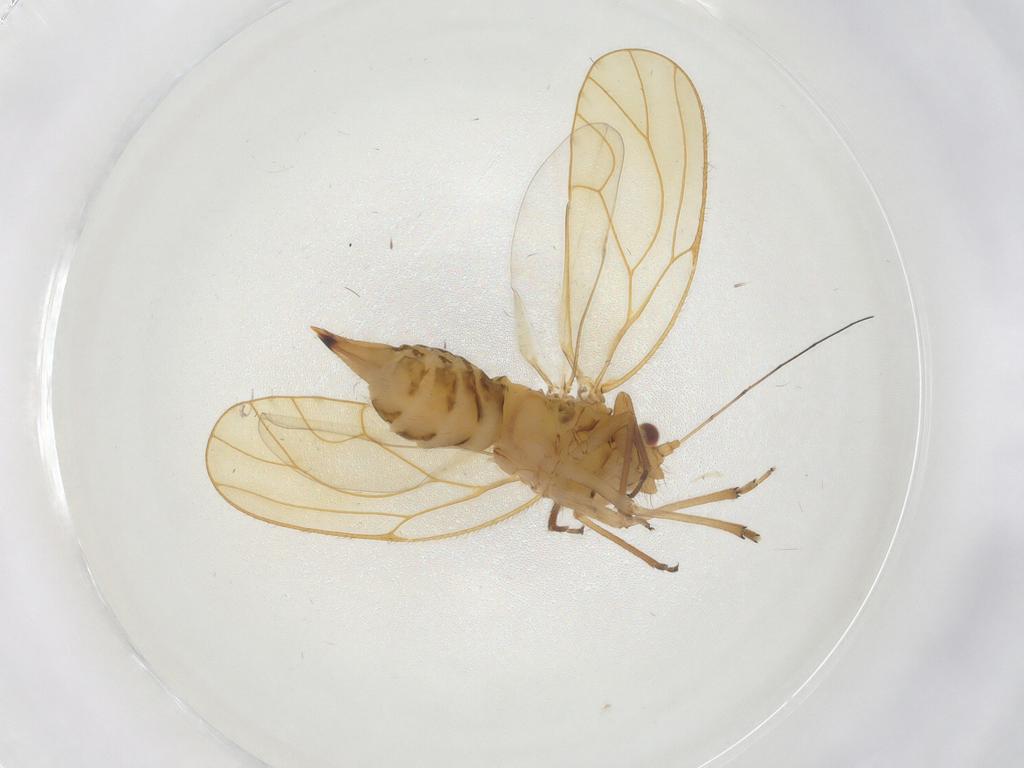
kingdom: Animalia
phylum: Arthropoda
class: Insecta
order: Hemiptera
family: Psyllidae
